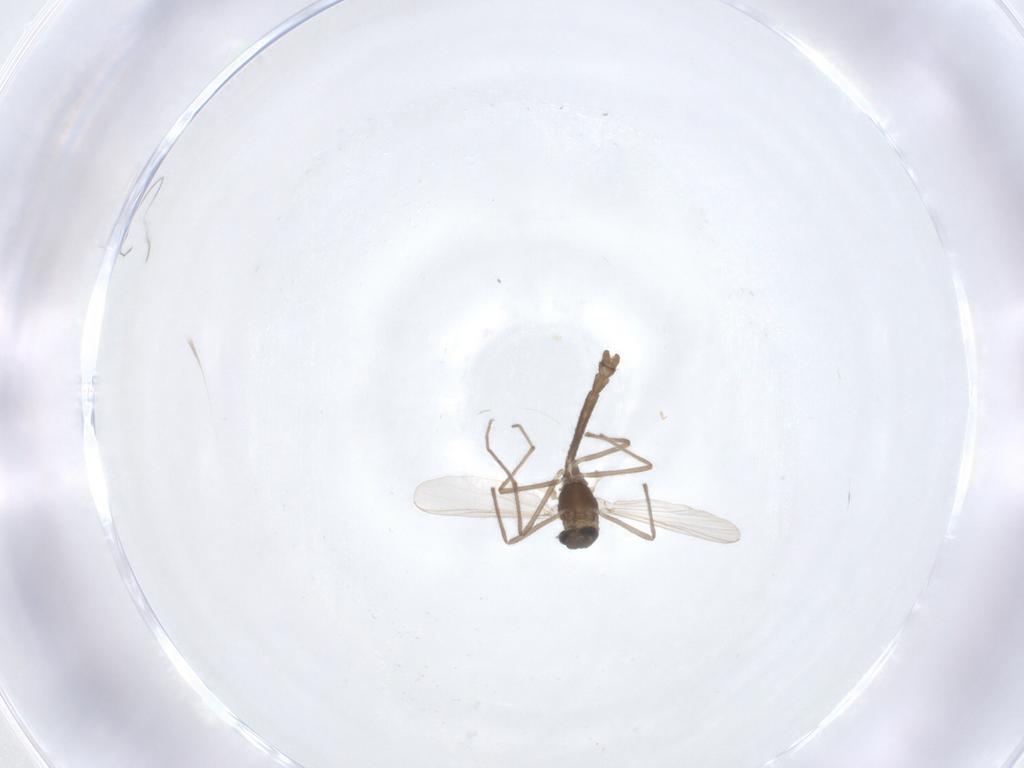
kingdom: Animalia
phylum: Arthropoda
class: Insecta
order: Diptera
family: Chironomidae
